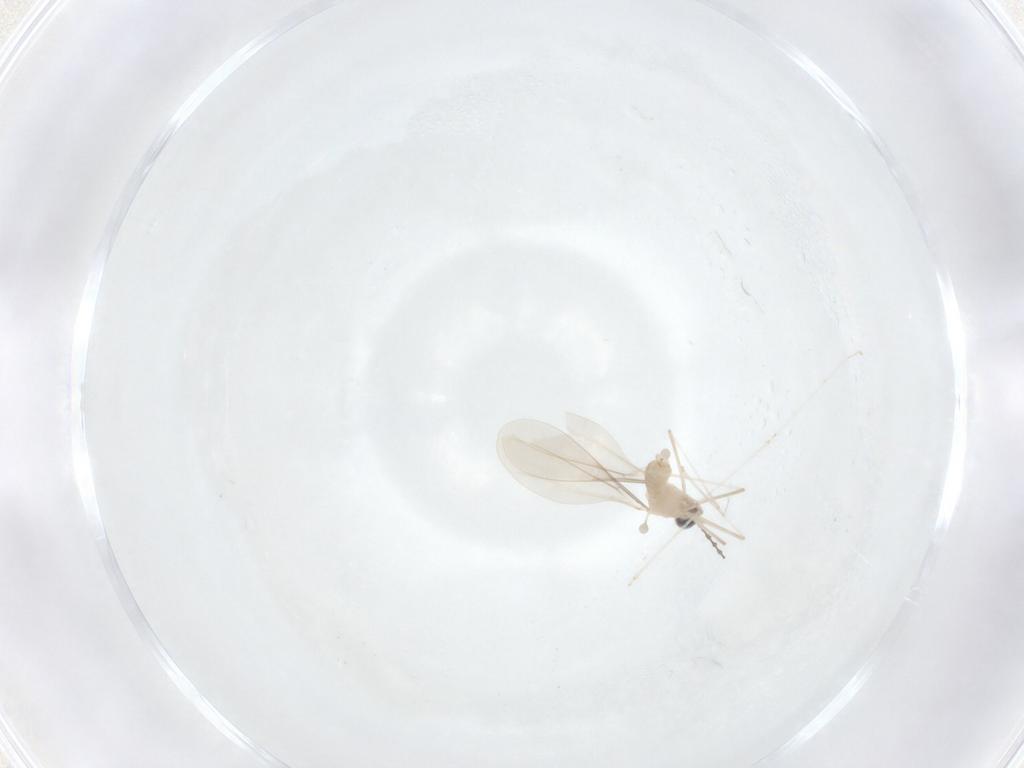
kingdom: Animalia
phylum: Arthropoda
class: Insecta
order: Diptera
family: Cecidomyiidae
